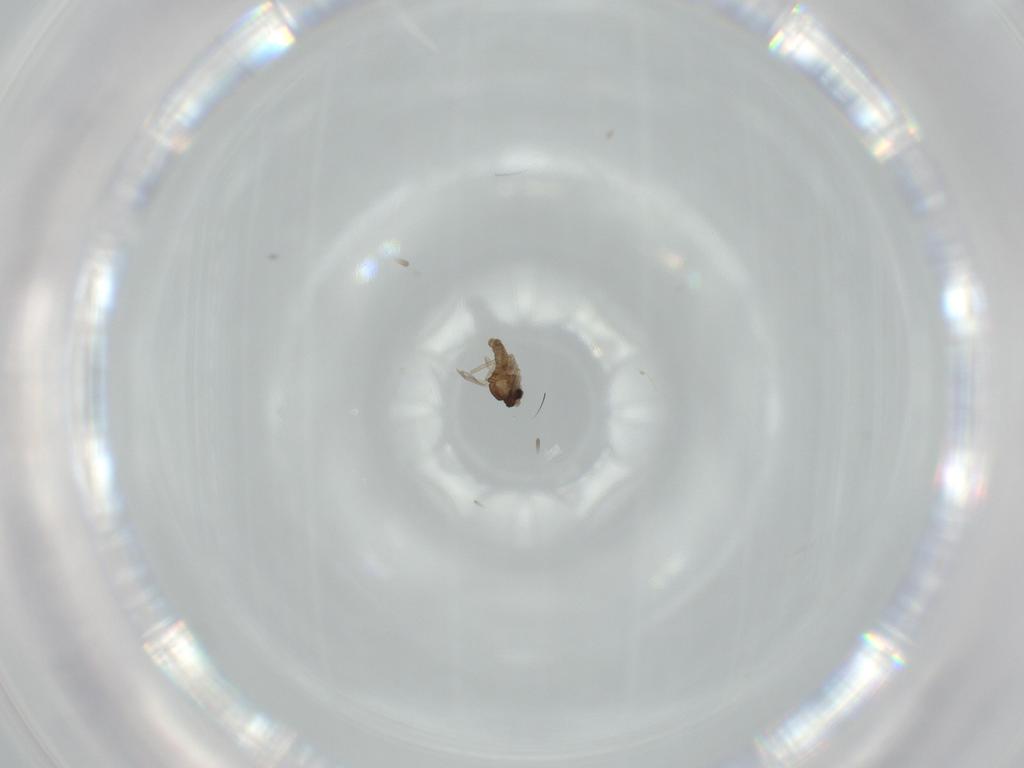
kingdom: Animalia
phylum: Arthropoda
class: Insecta
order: Diptera
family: Cecidomyiidae
